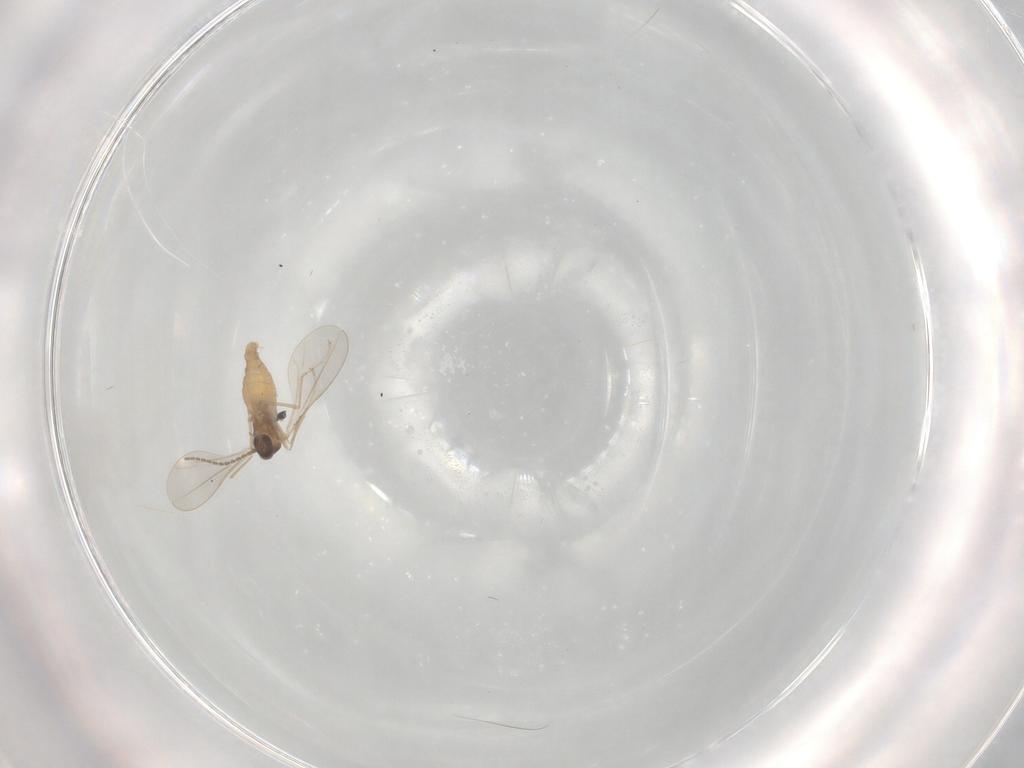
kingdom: Animalia
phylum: Arthropoda
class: Insecta
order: Diptera
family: Cecidomyiidae
